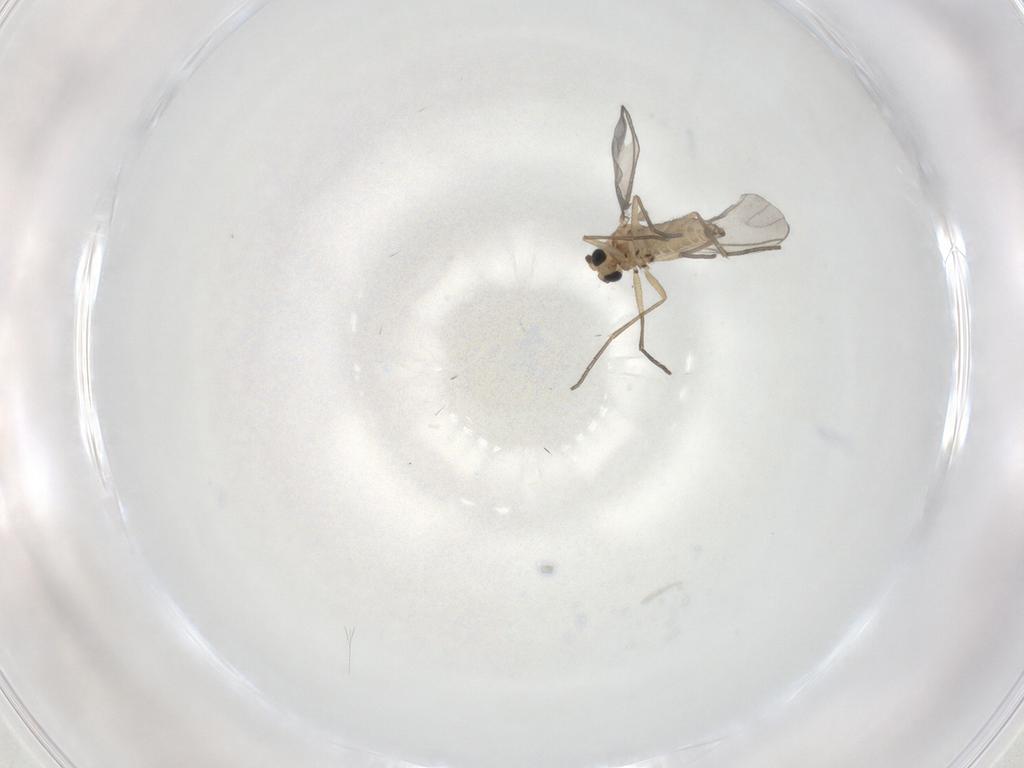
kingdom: Animalia
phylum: Arthropoda
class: Insecta
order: Diptera
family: Sciaridae
